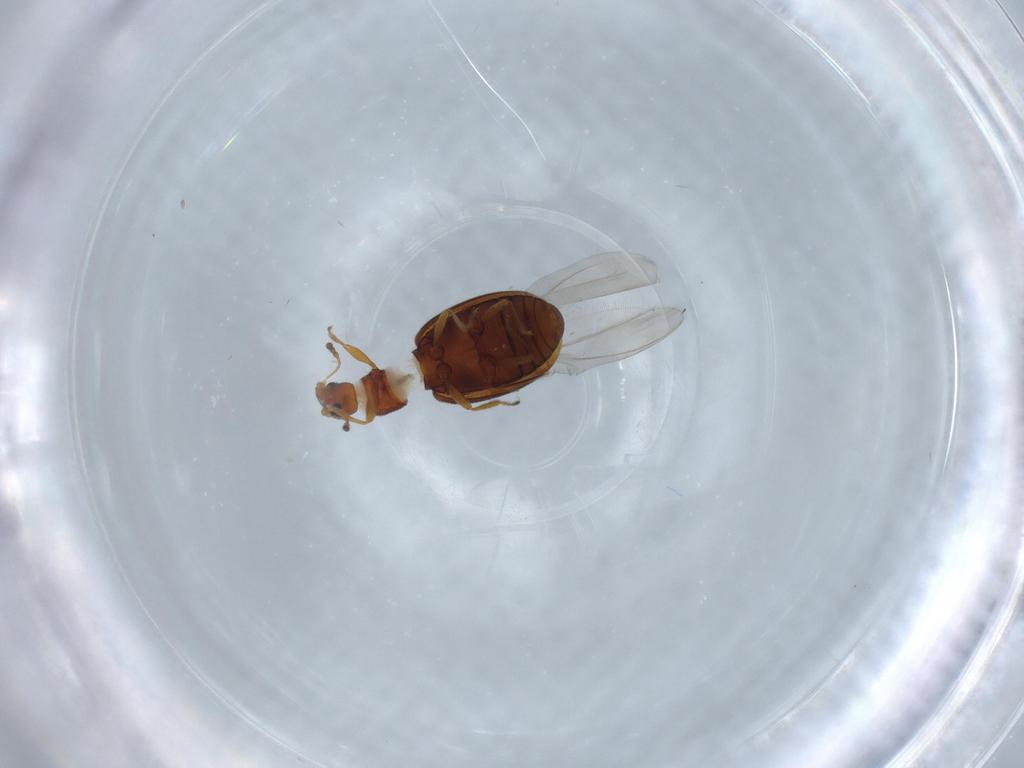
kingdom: Animalia
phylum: Arthropoda
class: Insecta
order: Coleoptera
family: Latridiidae
